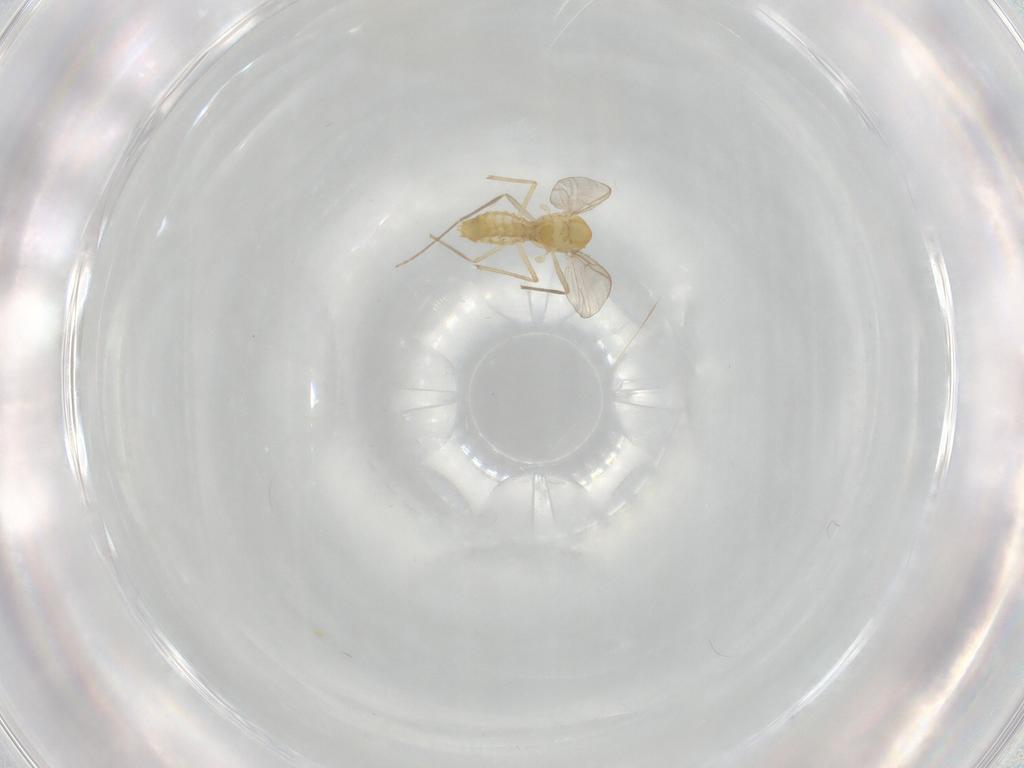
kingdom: Animalia
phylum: Arthropoda
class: Insecta
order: Diptera
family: Chironomidae
